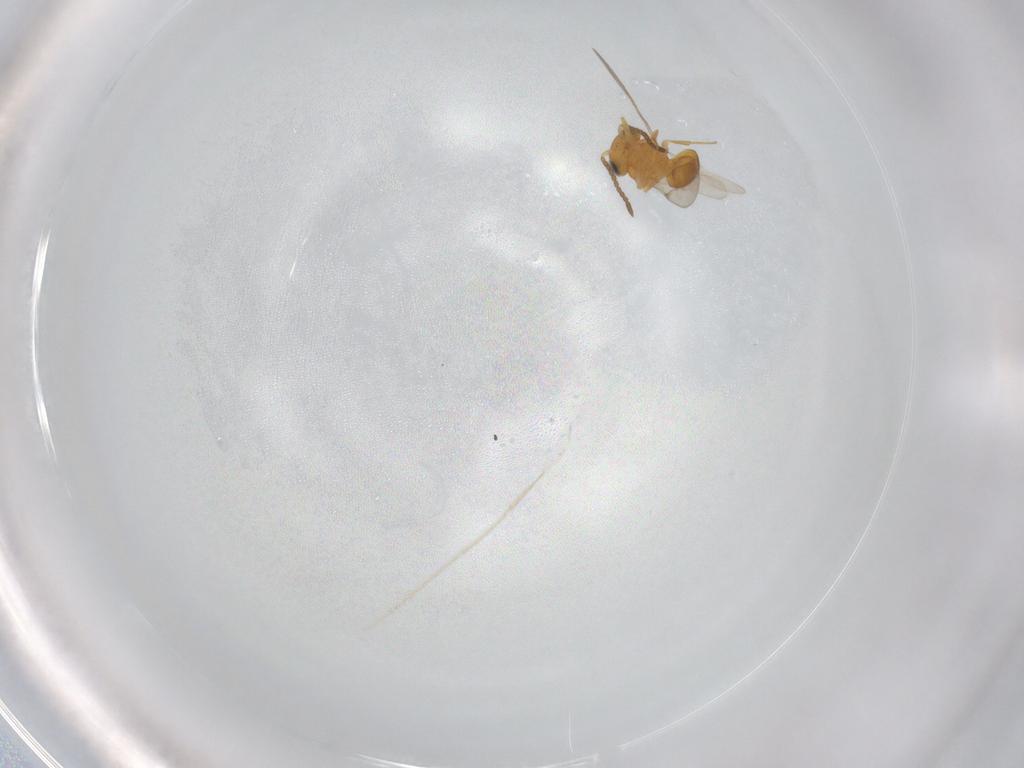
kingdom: Animalia
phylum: Arthropoda
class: Insecta
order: Hymenoptera
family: Scelionidae
